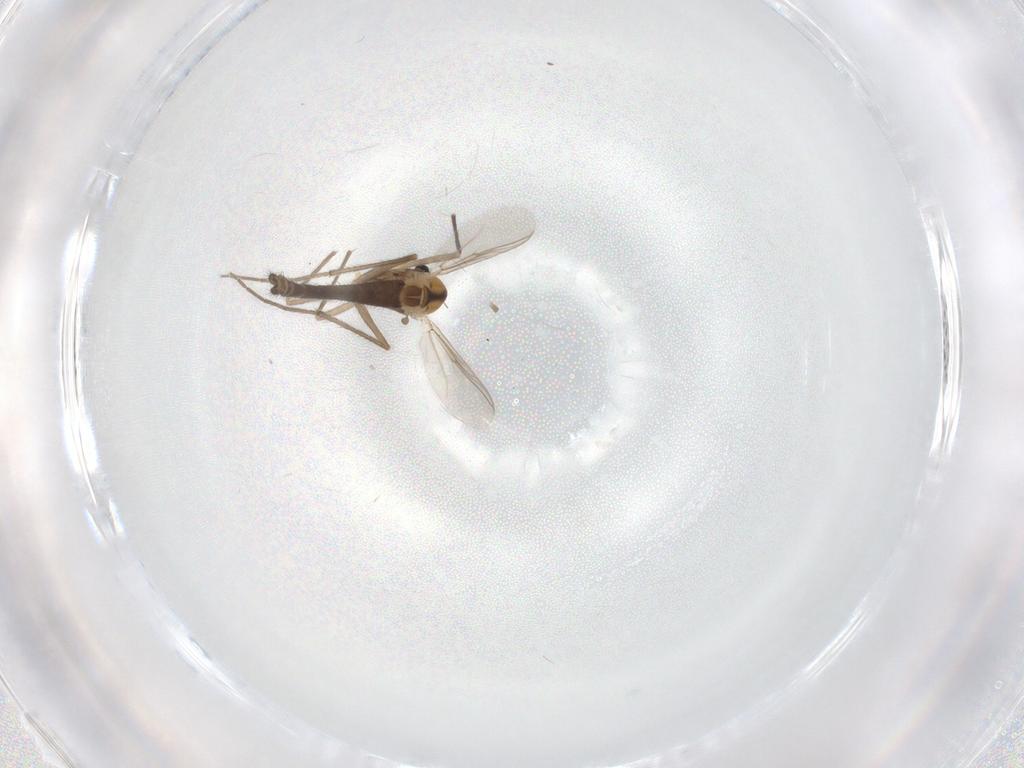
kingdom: Animalia
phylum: Arthropoda
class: Insecta
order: Diptera
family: Chironomidae
